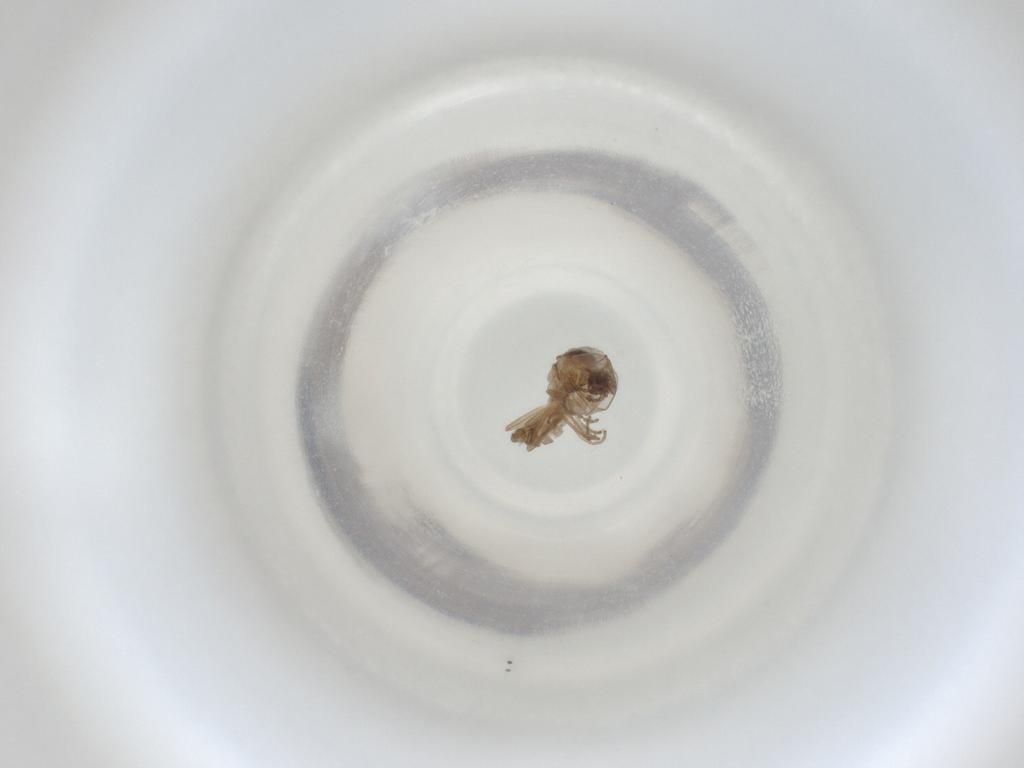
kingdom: Animalia
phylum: Arthropoda
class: Insecta
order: Diptera
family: Cecidomyiidae
